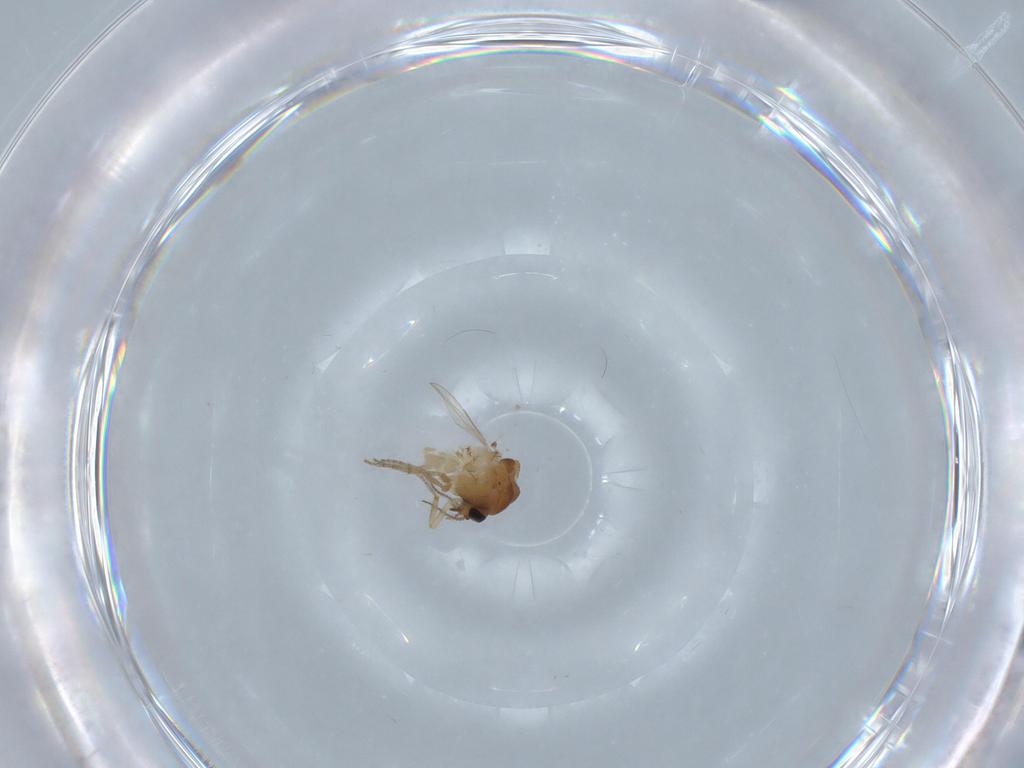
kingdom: Animalia
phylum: Arthropoda
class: Insecta
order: Diptera
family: Ceratopogonidae
